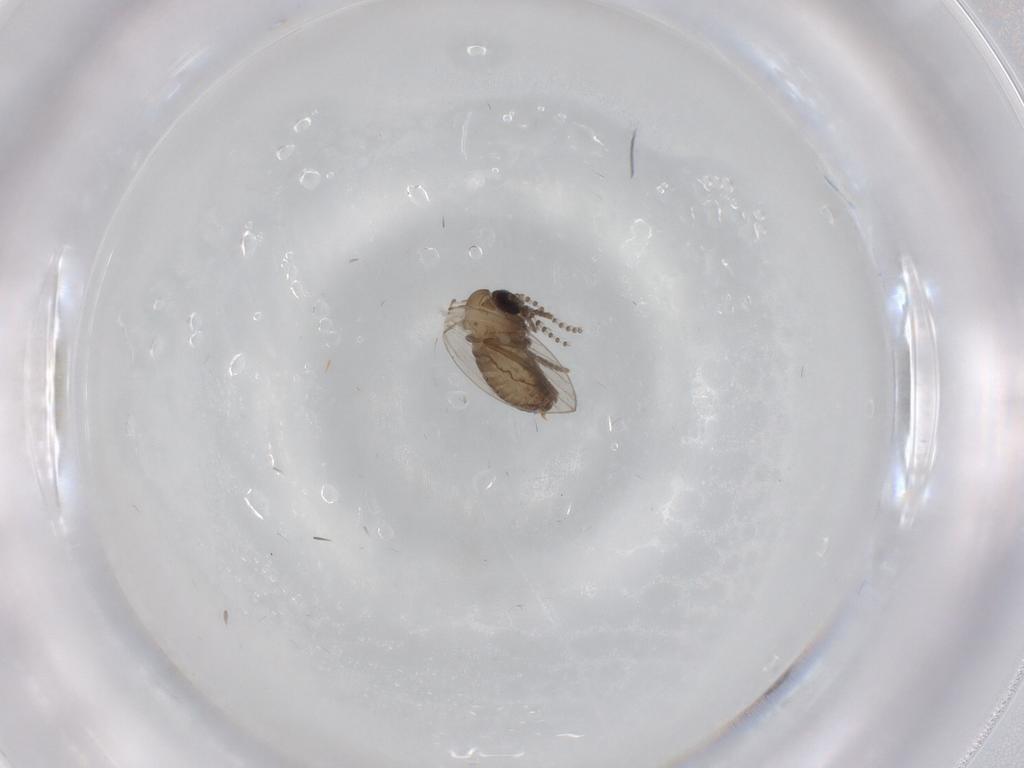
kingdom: Animalia
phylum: Arthropoda
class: Insecta
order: Diptera
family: Psychodidae
